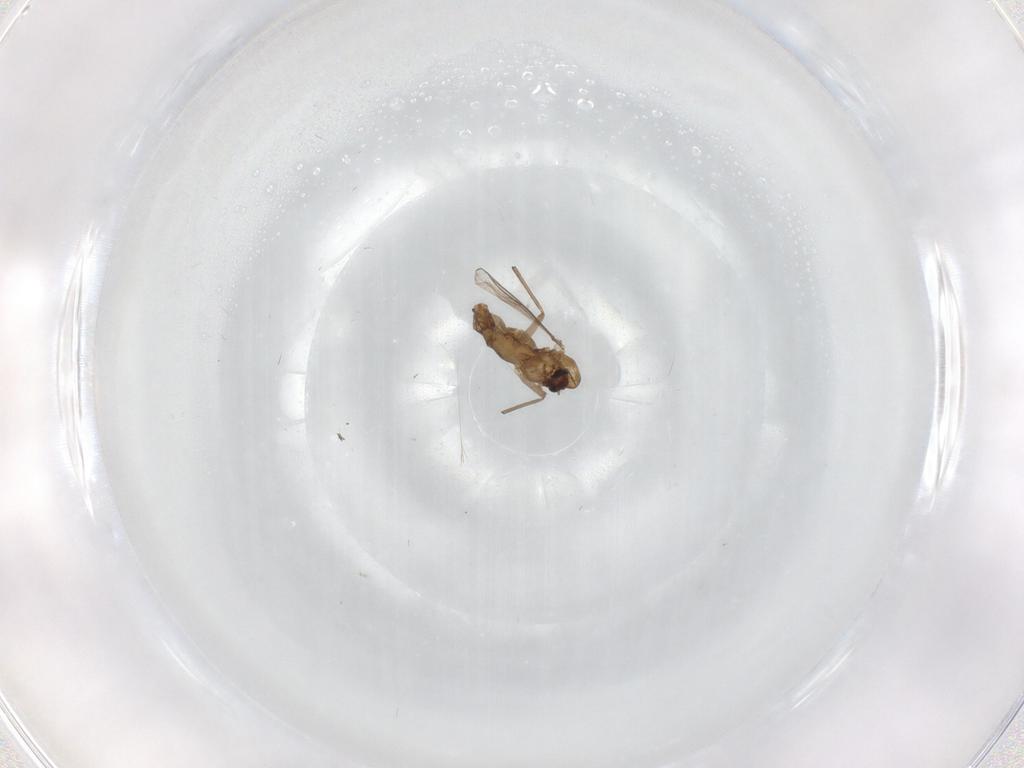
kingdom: Animalia
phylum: Arthropoda
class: Insecta
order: Diptera
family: Chironomidae
